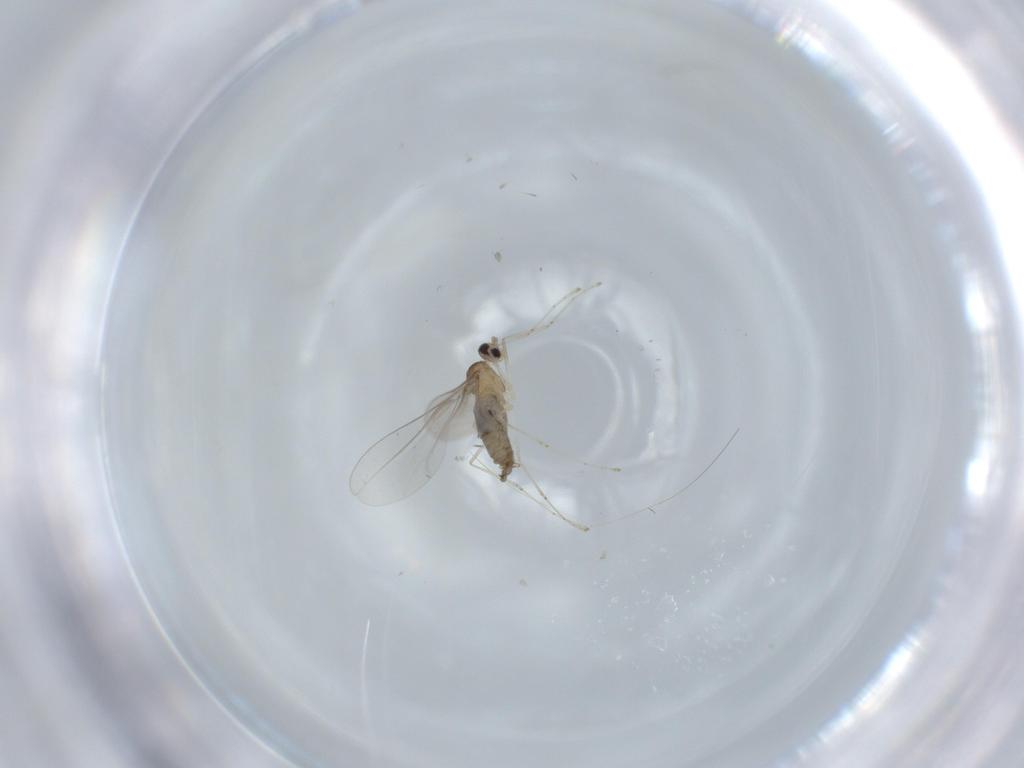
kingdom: Animalia
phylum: Arthropoda
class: Insecta
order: Diptera
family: Cecidomyiidae
